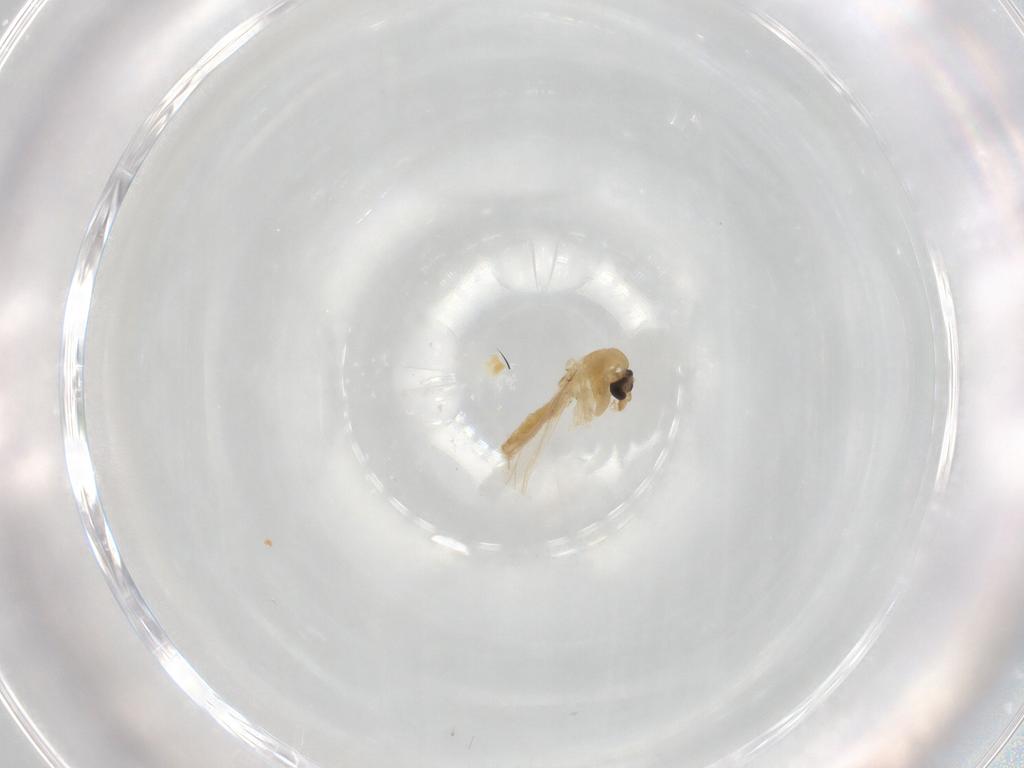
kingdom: Animalia
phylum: Arthropoda
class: Insecta
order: Diptera
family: Glossinidae
